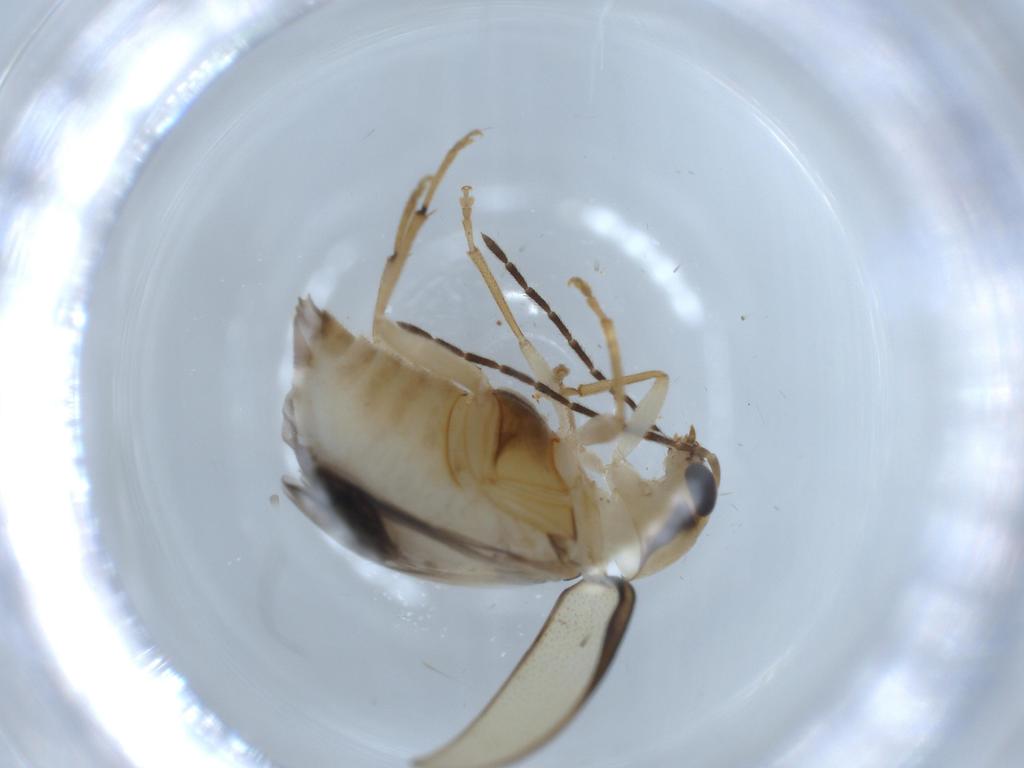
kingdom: Animalia
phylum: Arthropoda
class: Insecta
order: Coleoptera
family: Chrysomelidae
